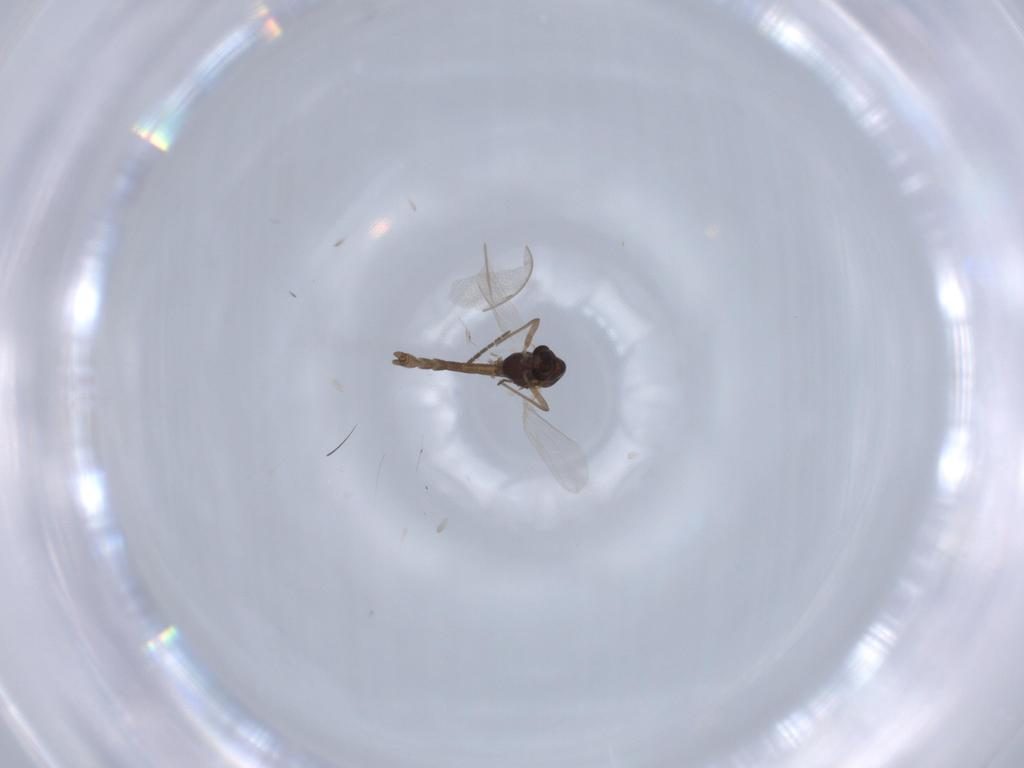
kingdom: Animalia
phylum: Arthropoda
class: Insecta
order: Diptera
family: Chironomidae
